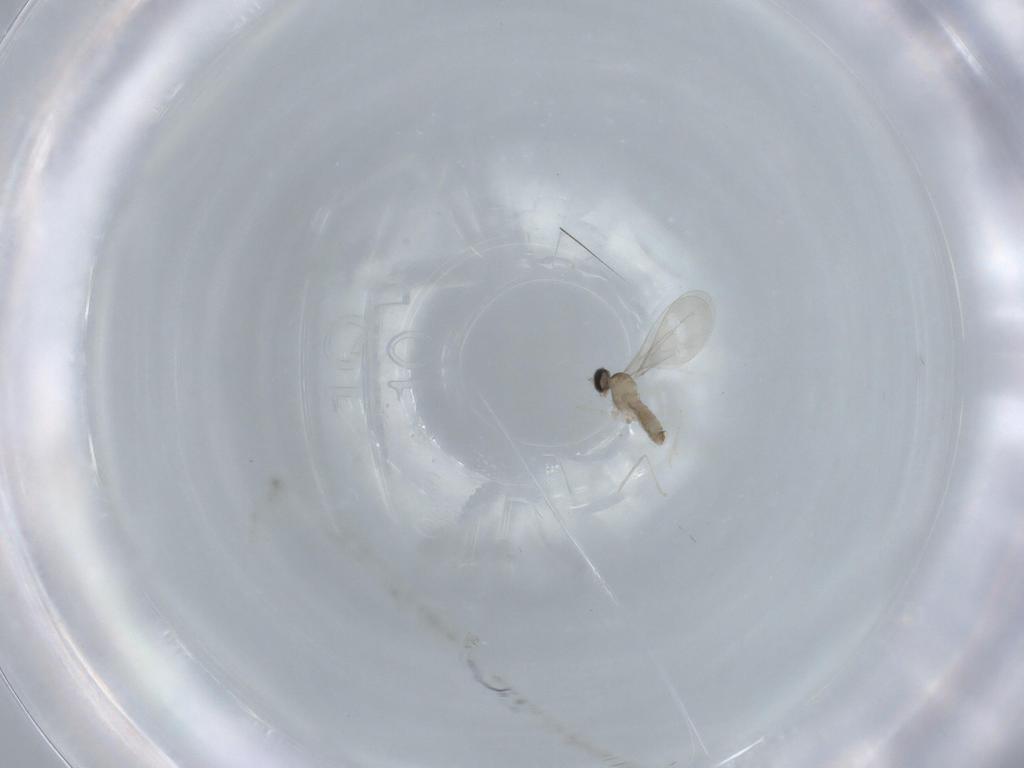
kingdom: Animalia
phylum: Arthropoda
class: Insecta
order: Diptera
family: Cecidomyiidae
